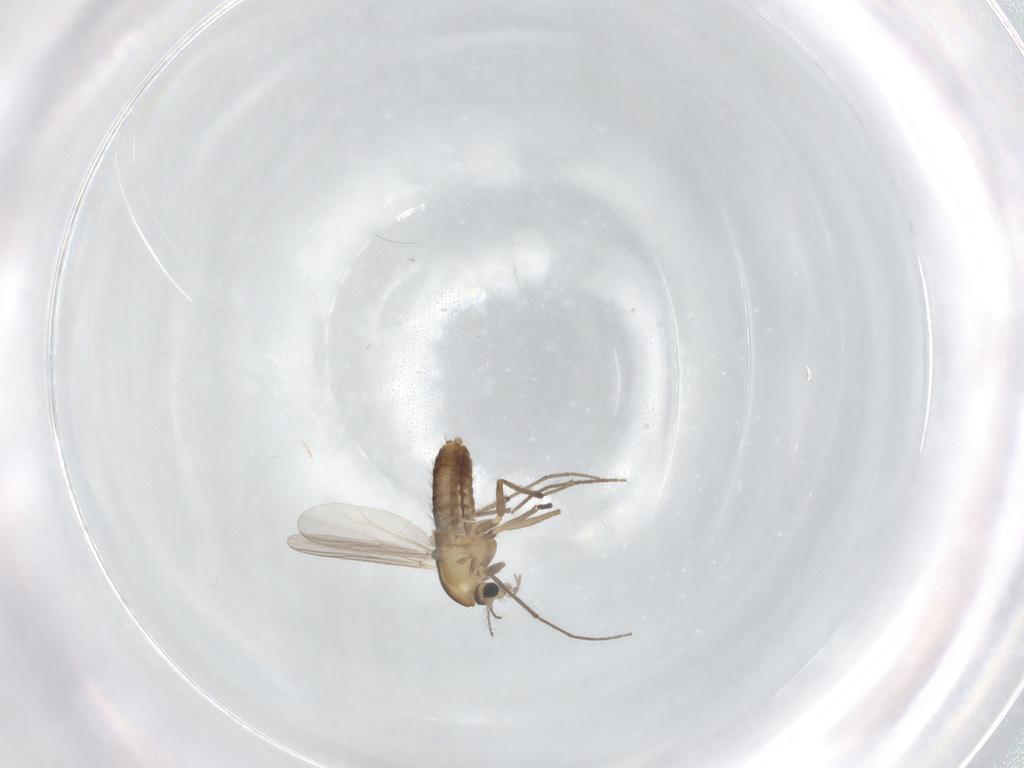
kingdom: Animalia
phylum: Arthropoda
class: Insecta
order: Diptera
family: Chironomidae
